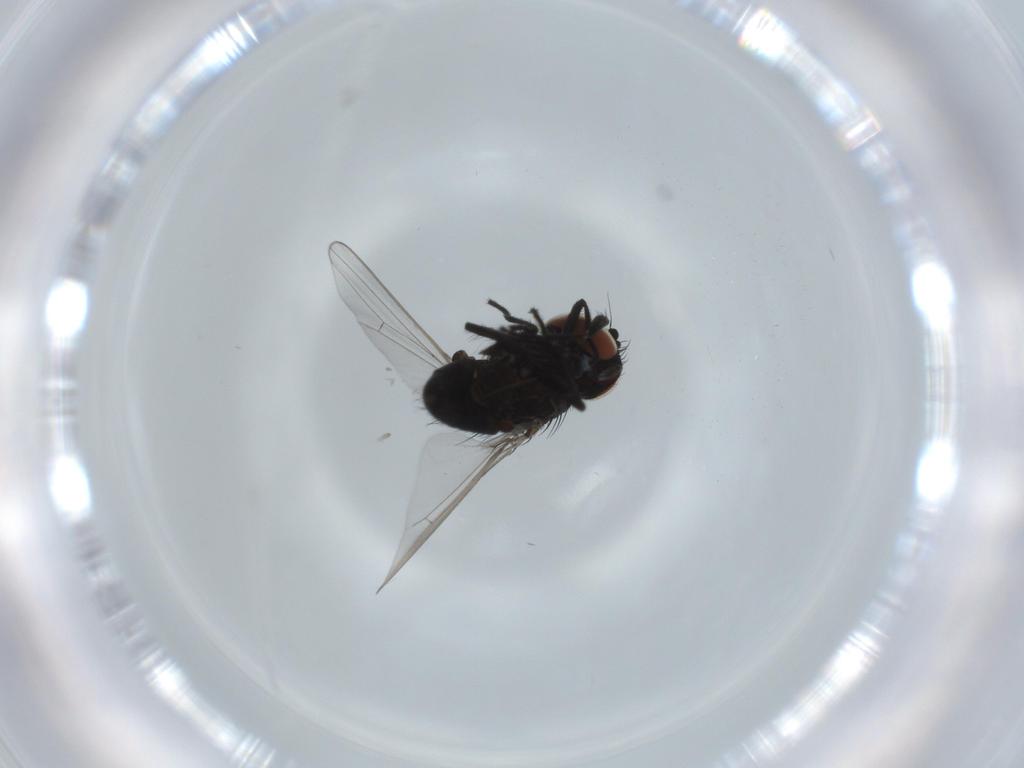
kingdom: Animalia
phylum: Arthropoda
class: Insecta
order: Diptera
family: Milichiidae
